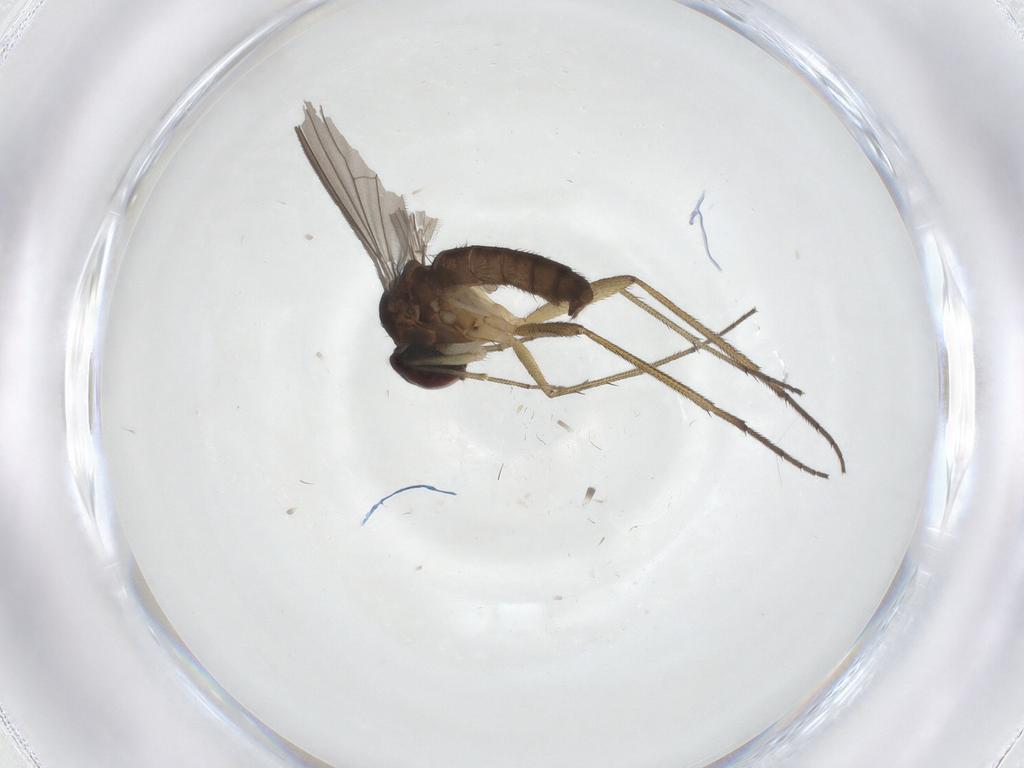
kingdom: Animalia
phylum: Arthropoda
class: Insecta
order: Diptera
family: Dolichopodidae
